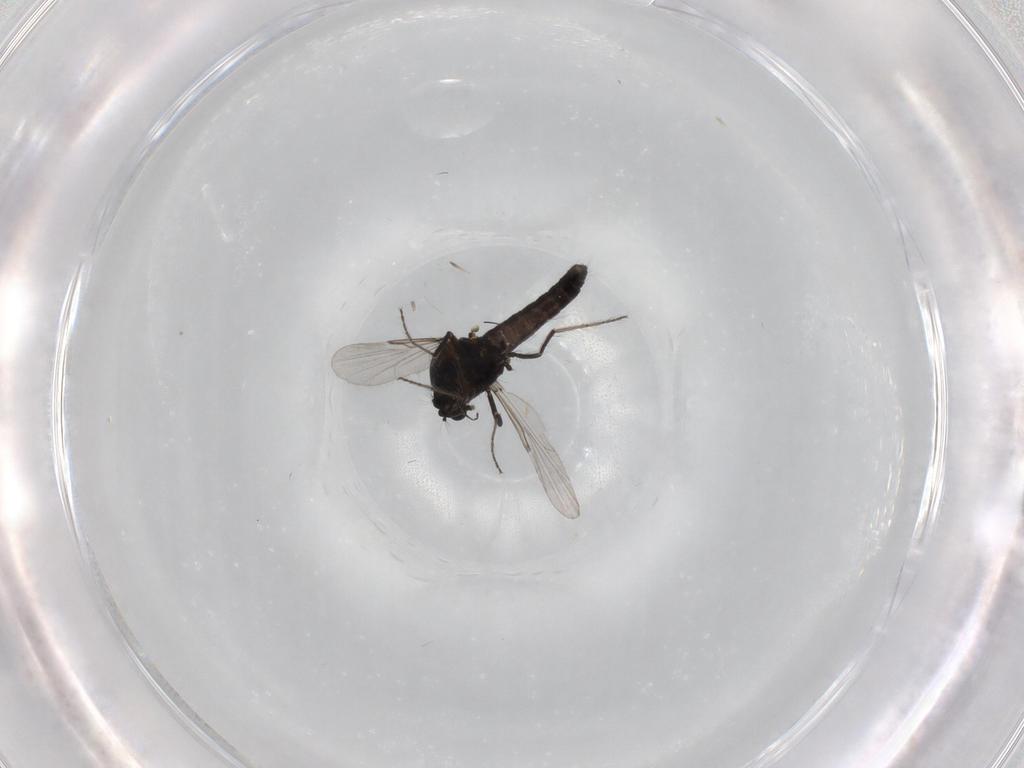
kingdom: Animalia
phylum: Arthropoda
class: Insecta
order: Diptera
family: Ceratopogonidae
